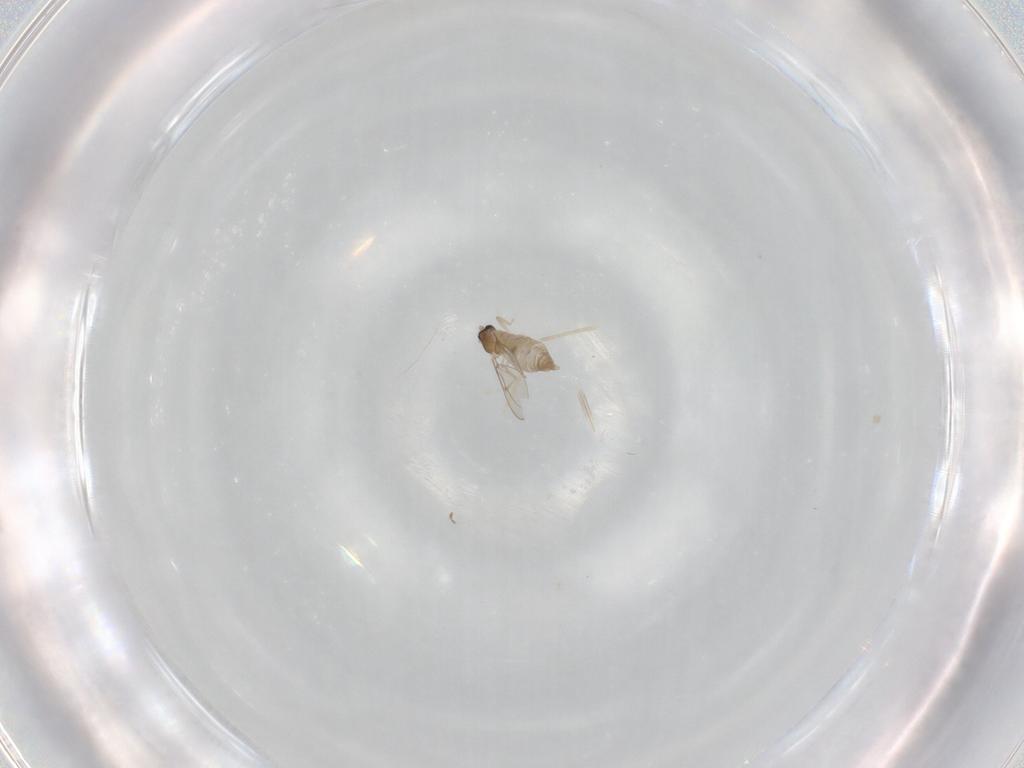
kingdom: Animalia
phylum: Arthropoda
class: Insecta
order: Diptera
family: Cecidomyiidae
